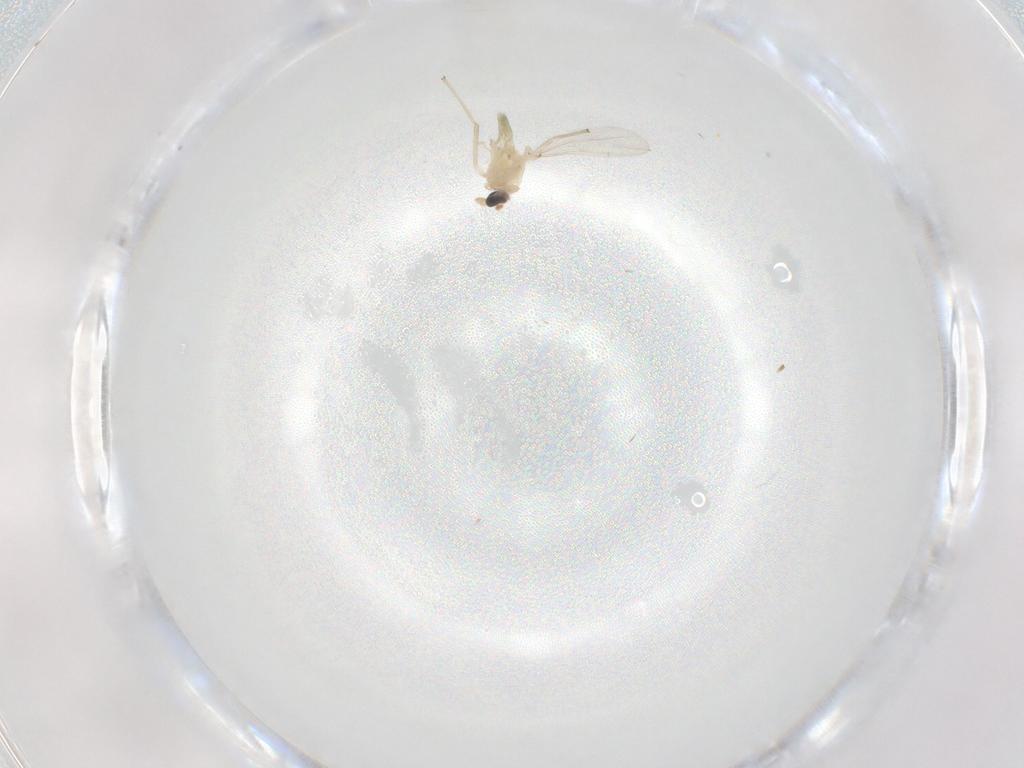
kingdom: Animalia
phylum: Arthropoda
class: Insecta
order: Diptera
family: Chironomidae
